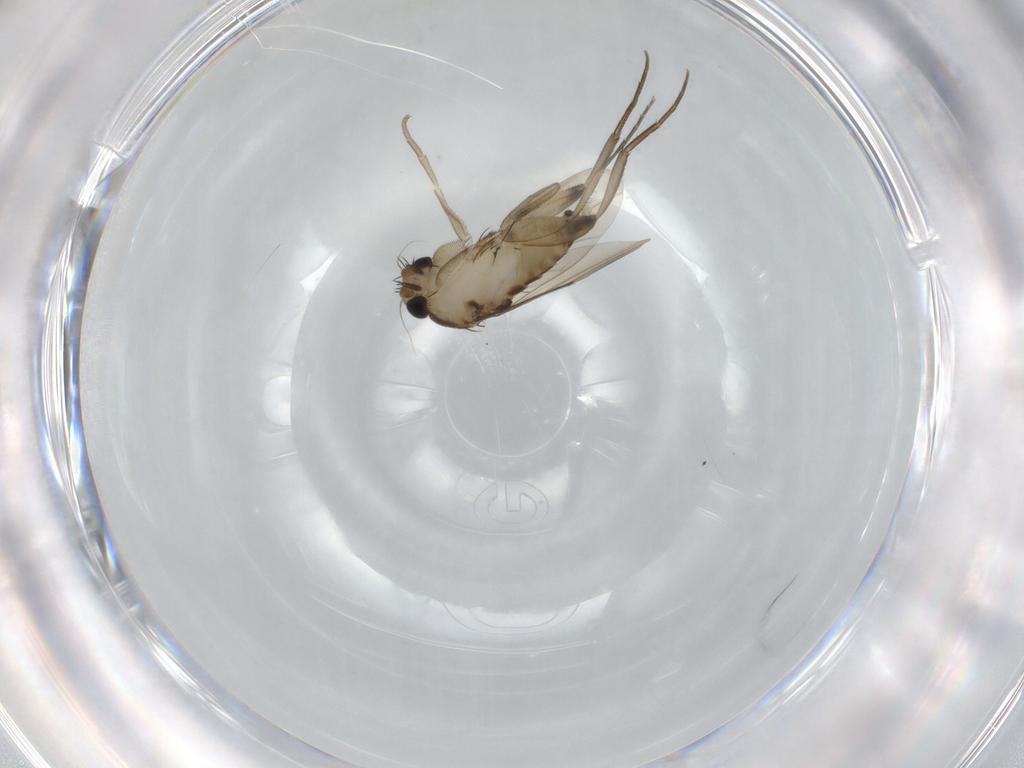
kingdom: Animalia
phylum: Arthropoda
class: Insecta
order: Diptera
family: Phoridae
